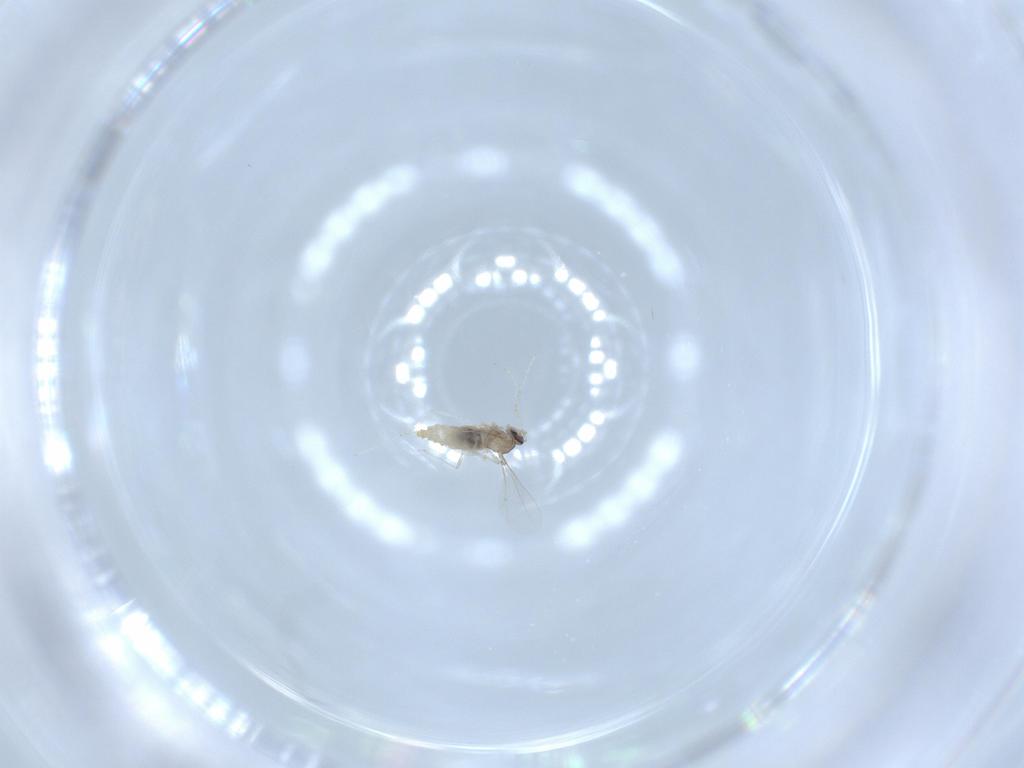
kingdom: Animalia
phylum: Arthropoda
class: Insecta
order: Diptera
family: Cecidomyiidae
